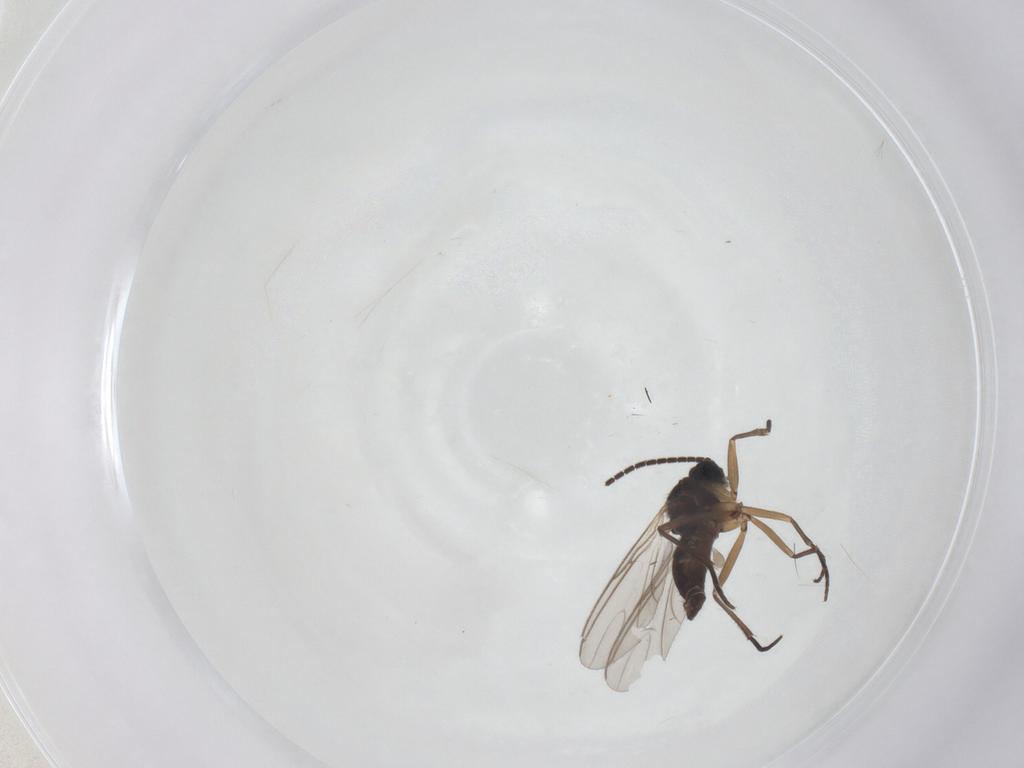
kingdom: Animalia
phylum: Arthropoda
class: Insecta
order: Diptera
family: Sciaridae
